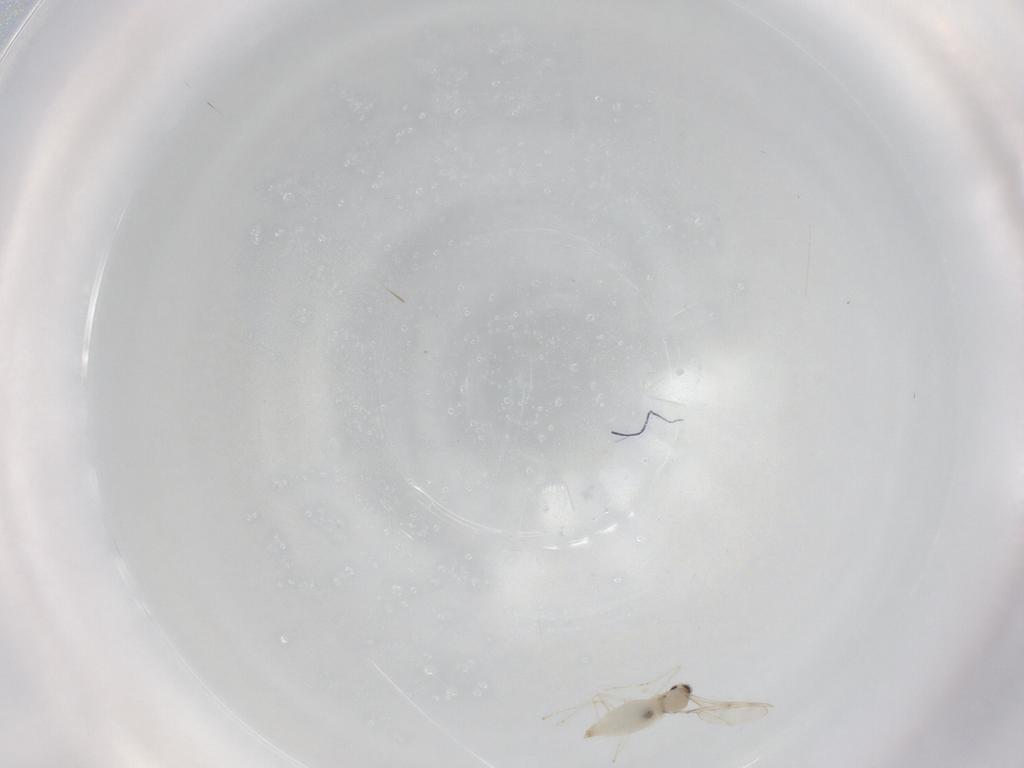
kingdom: Animalia
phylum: Arthropoda
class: Insecta
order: Diptera
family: Cecidomyiidae
